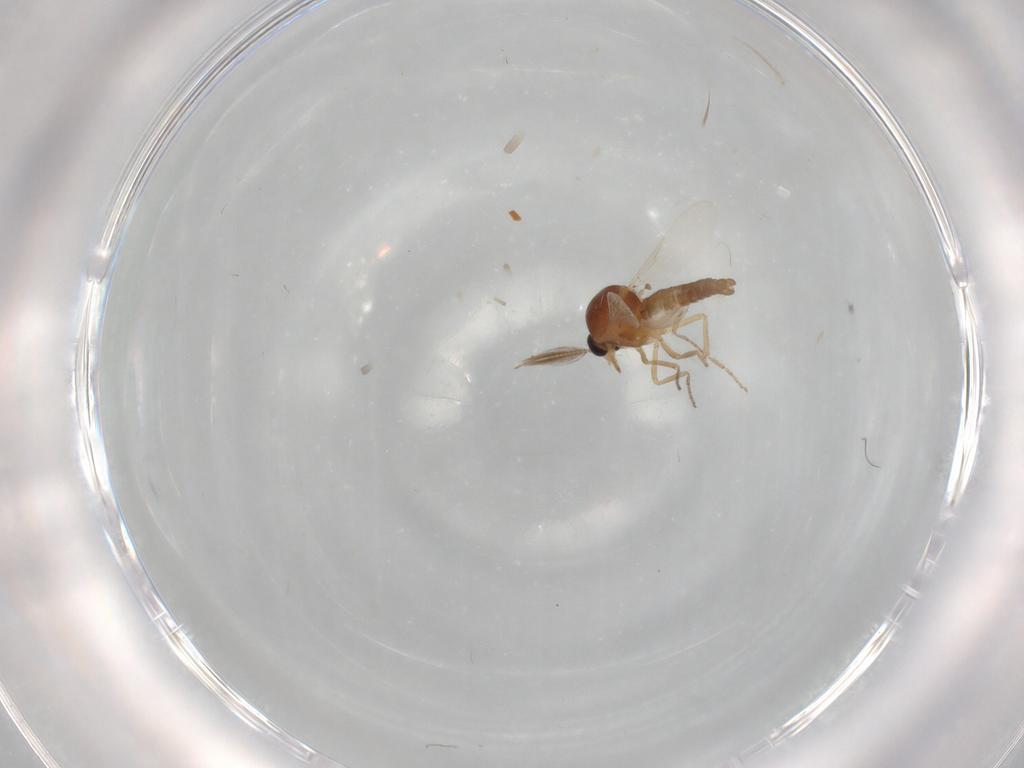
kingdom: Animalia
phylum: Arthropoda
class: Insecta
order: Diptera
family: Ceratopogonidae
